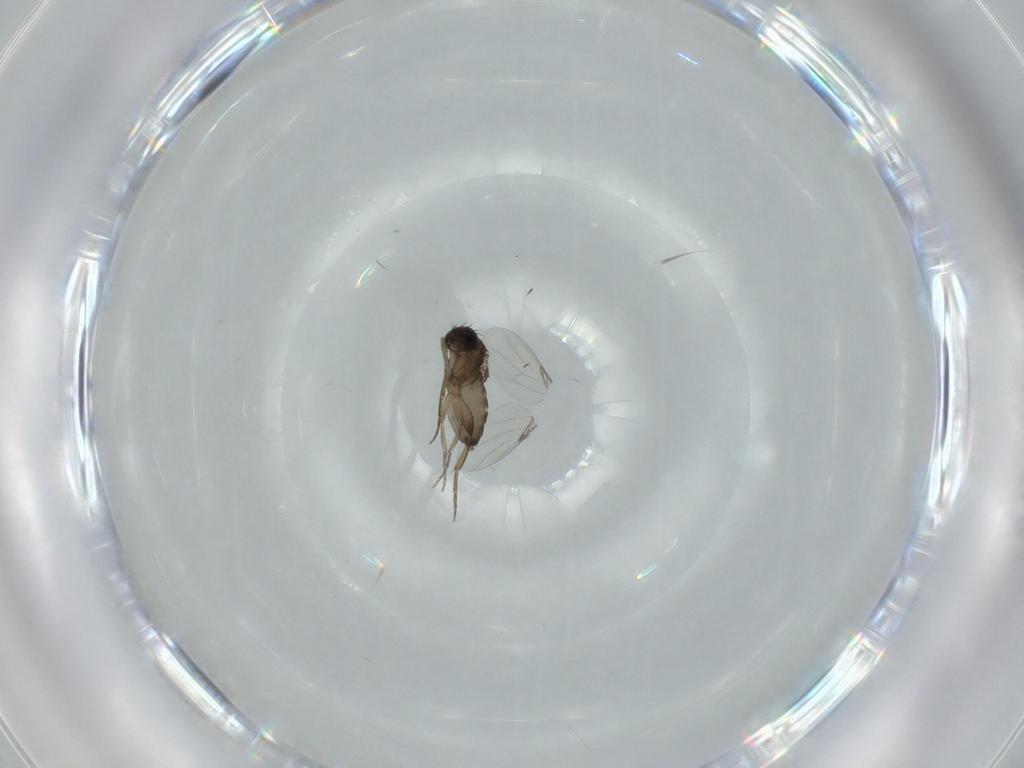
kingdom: Animalia
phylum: Arthropoda
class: Insecta
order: Diptera
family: Phoridae
